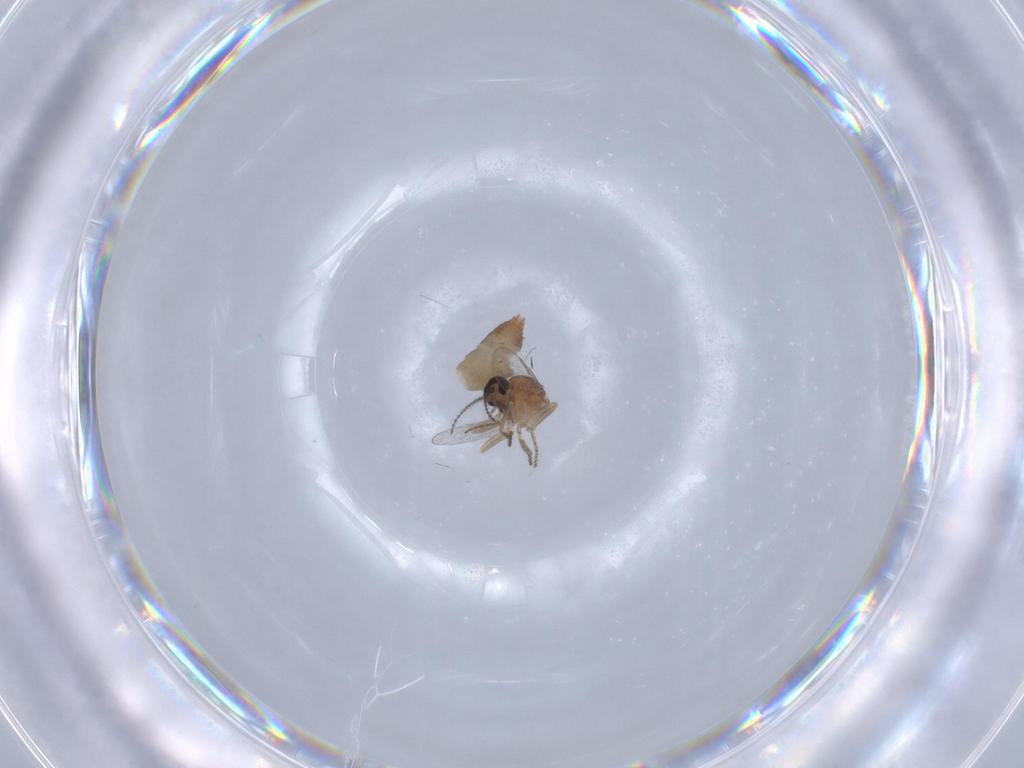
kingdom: Animalia
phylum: Arthropoda
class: Insecta
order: Diptera
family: Ceratopogonidae
